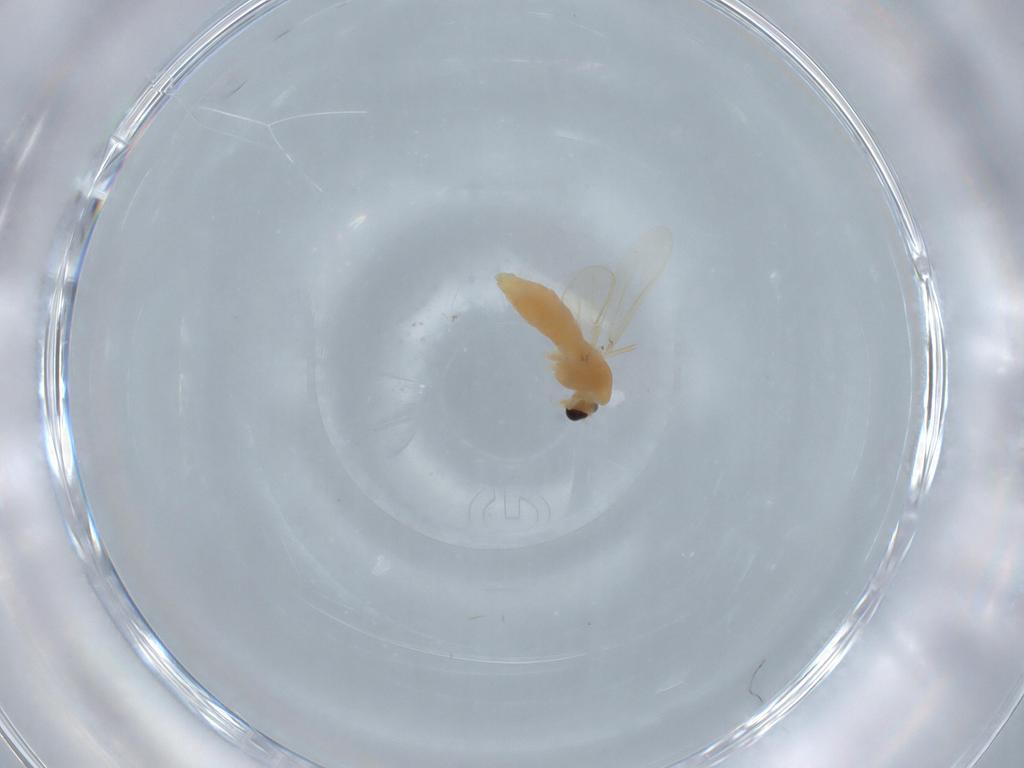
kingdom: Animalia
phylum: Arthropoda
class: Insecta
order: Diptera
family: Chironomidae
